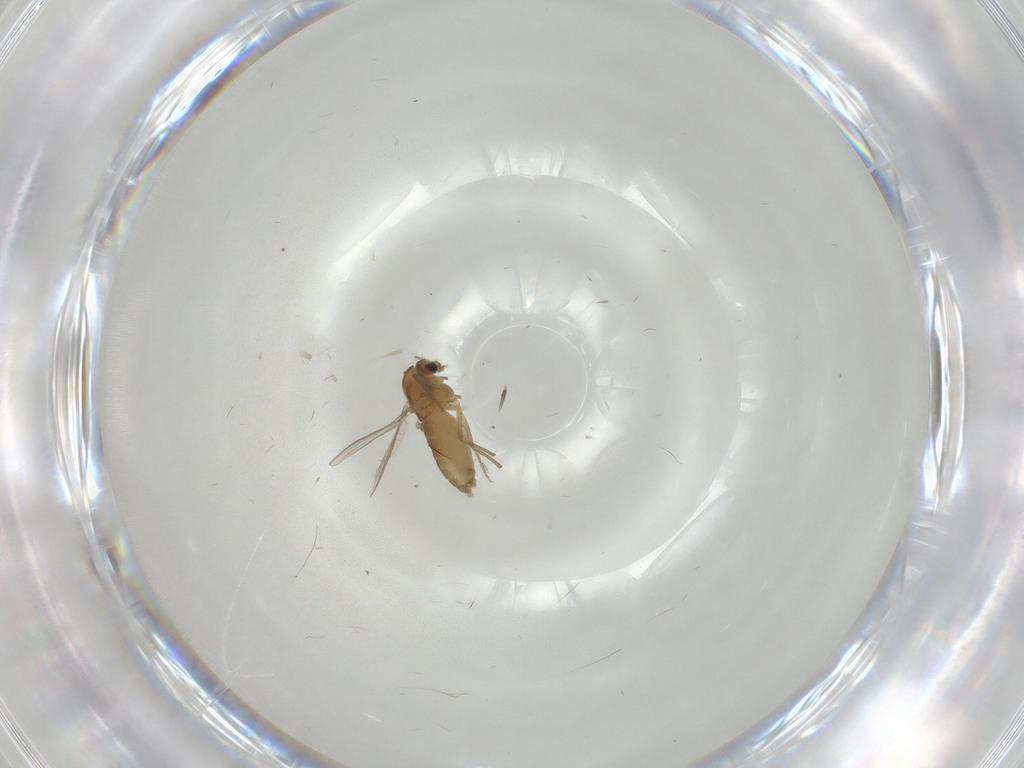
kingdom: Animalia
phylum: Arthropoda
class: Insecta
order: Diptera
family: Chironomidae
